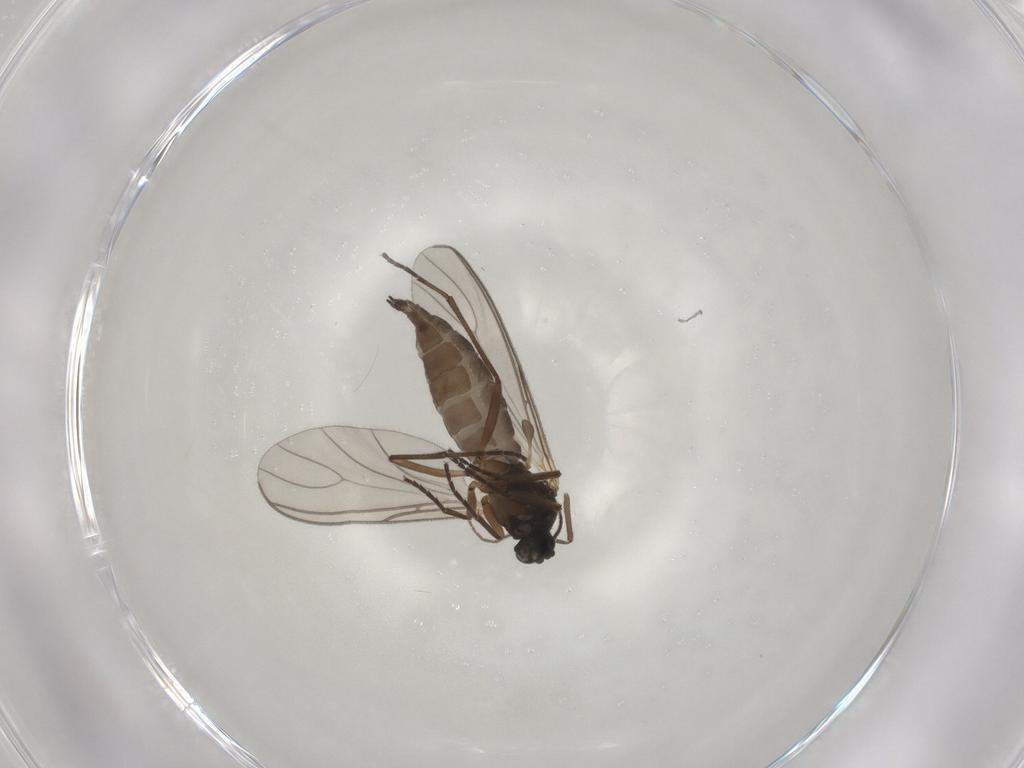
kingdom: Animalia
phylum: Arthropoda
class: Insecta
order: Diptera
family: Sciaridae
